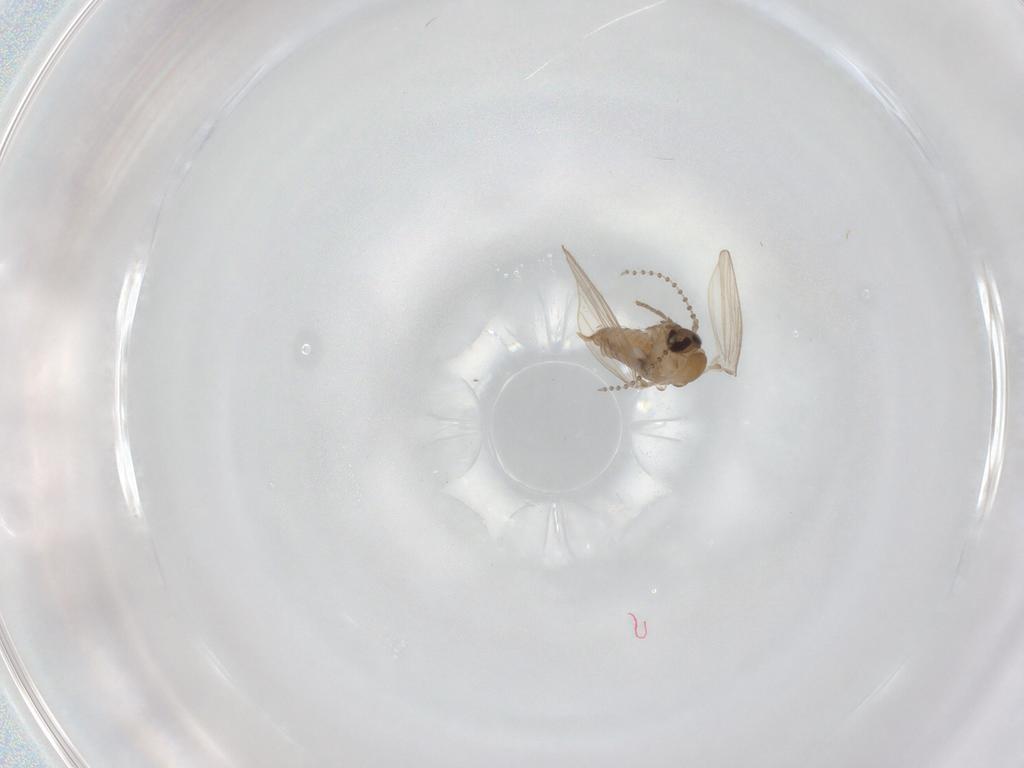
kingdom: Animalia
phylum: Arthropoda
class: Insecta
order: Diptera
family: Psychodidae
